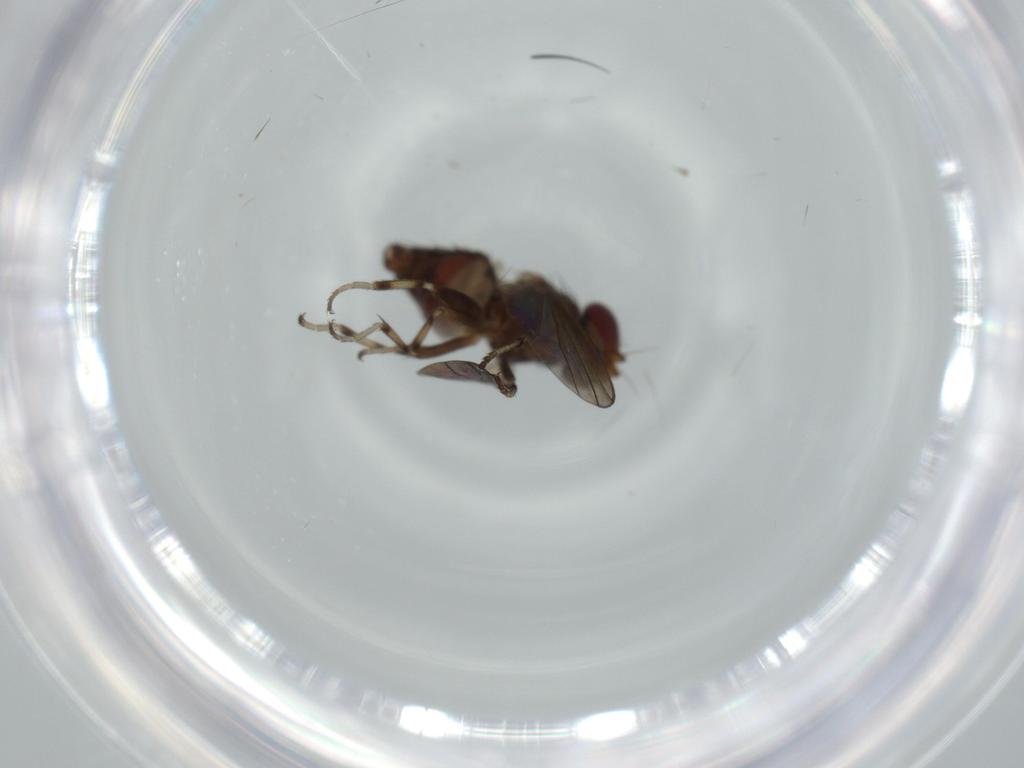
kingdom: Animalia
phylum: Arthropoda
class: Insecta
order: Diptera
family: Heleomyzidae
